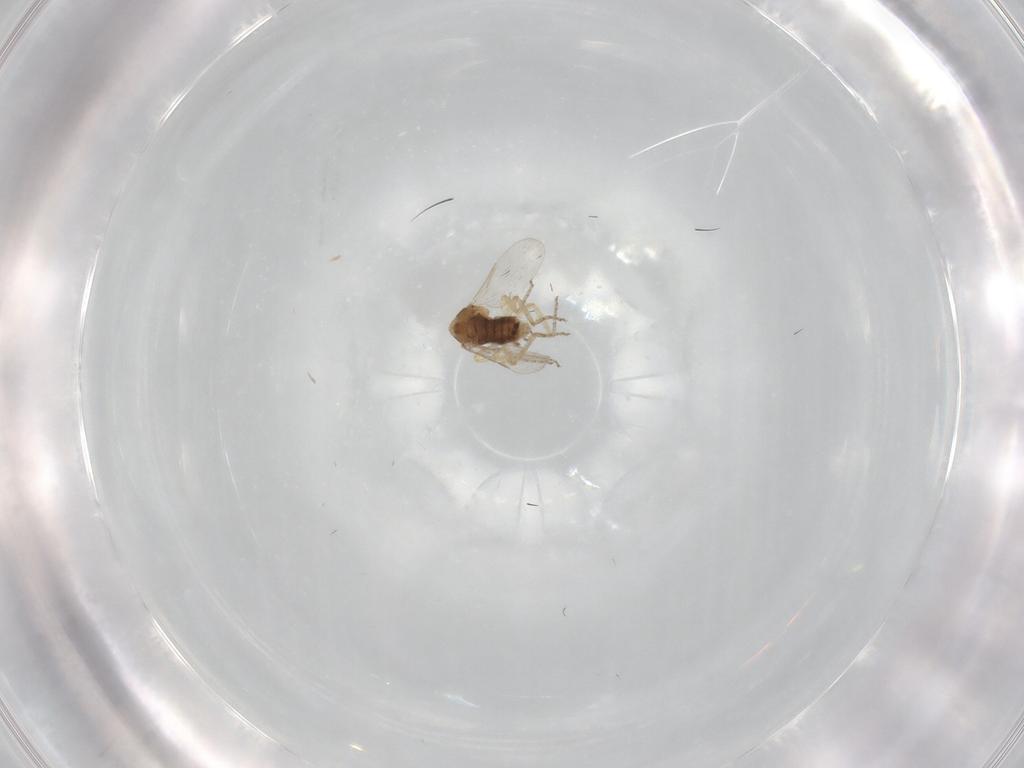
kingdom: Animalia
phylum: Arthropoda
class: Insecta
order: Diptera
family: Ceratopogonidae
